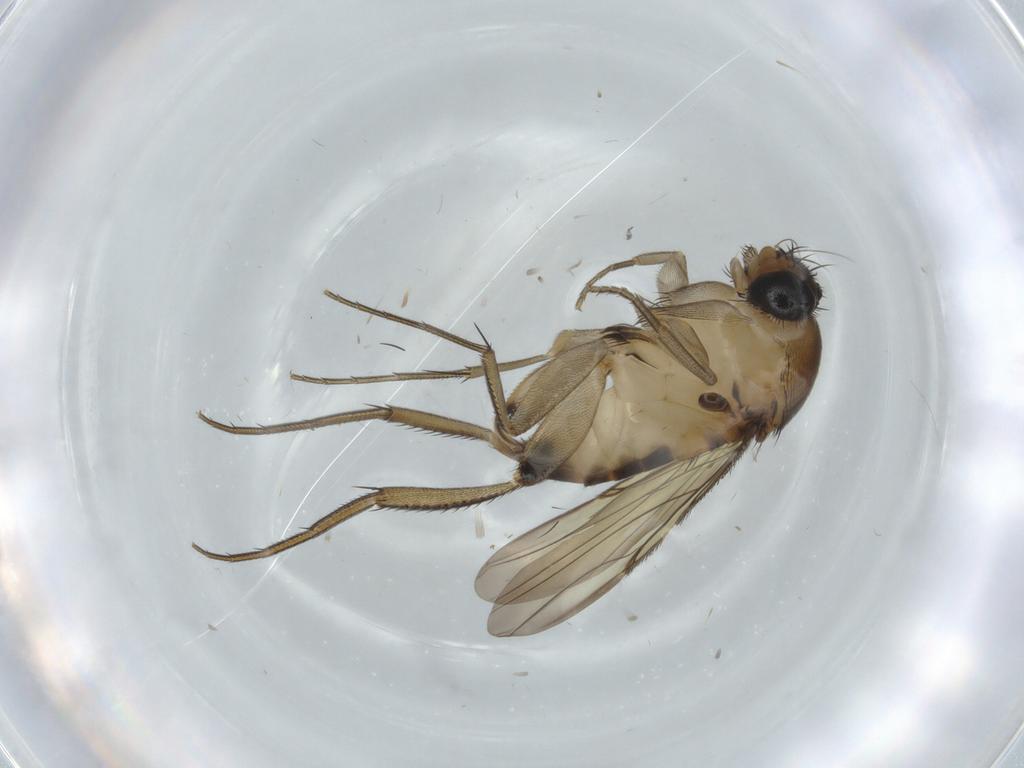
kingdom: Animalia
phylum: Arthropoda
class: Insecta
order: Diptera
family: Phoridae
